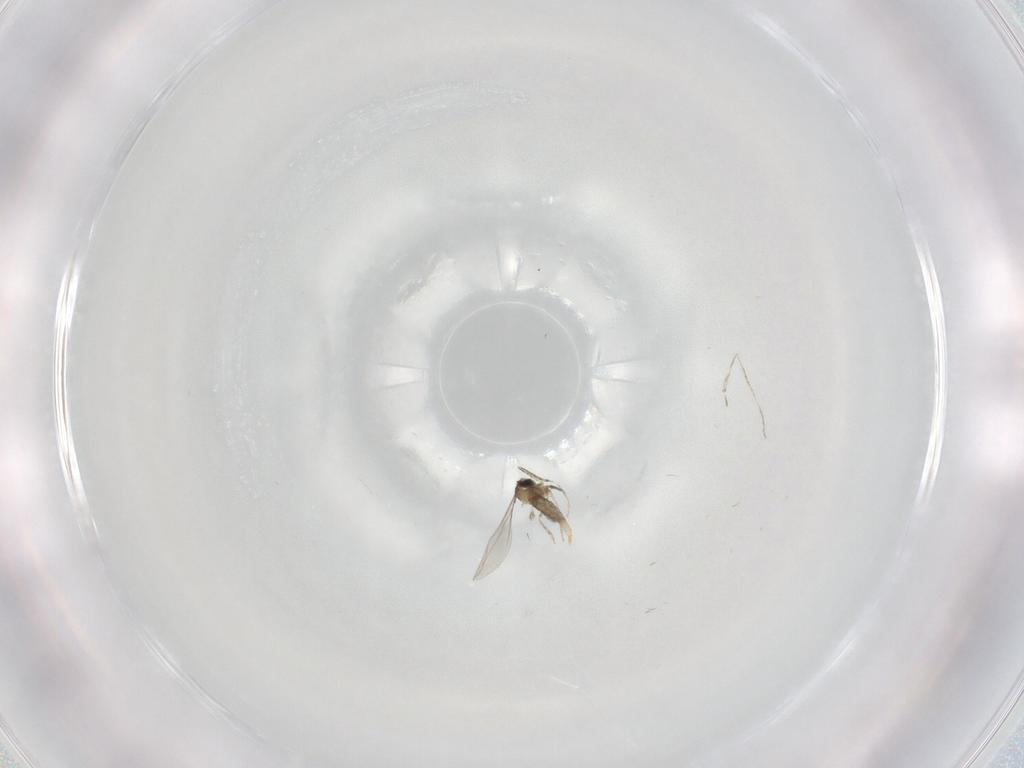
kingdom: Animalia
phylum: Arthropoda
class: Insecta
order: Diptera
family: Cecidomyiidae
